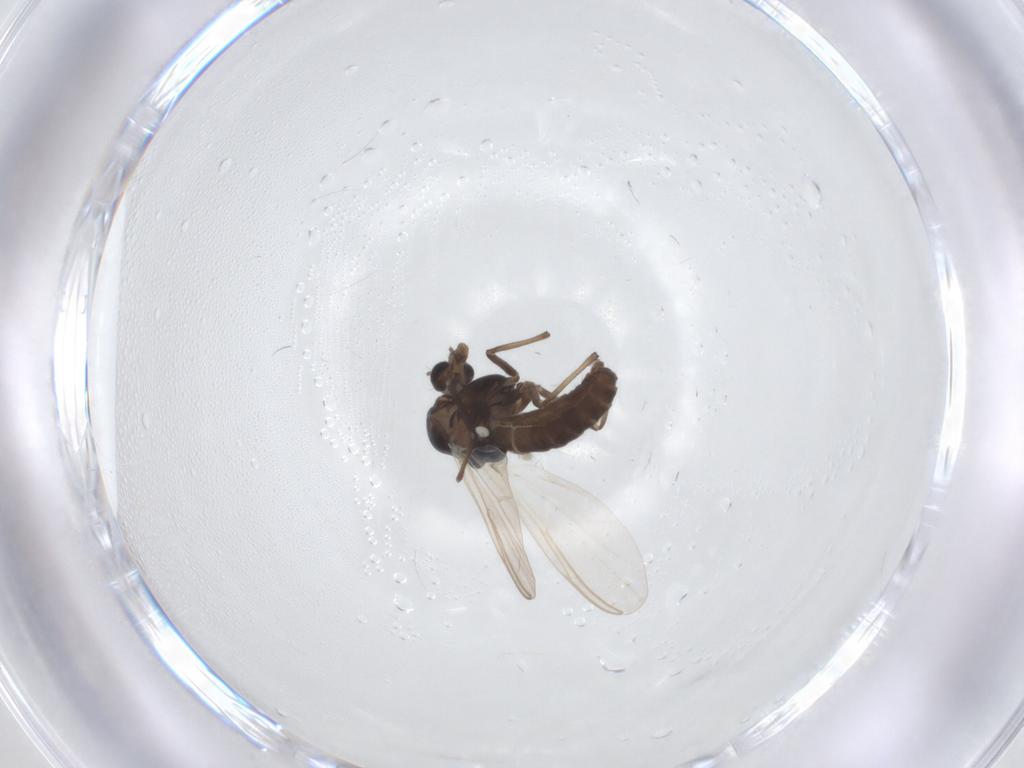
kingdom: Animalia
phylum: Arthropoda
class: Insecta
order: Diptera
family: Chironomidae
